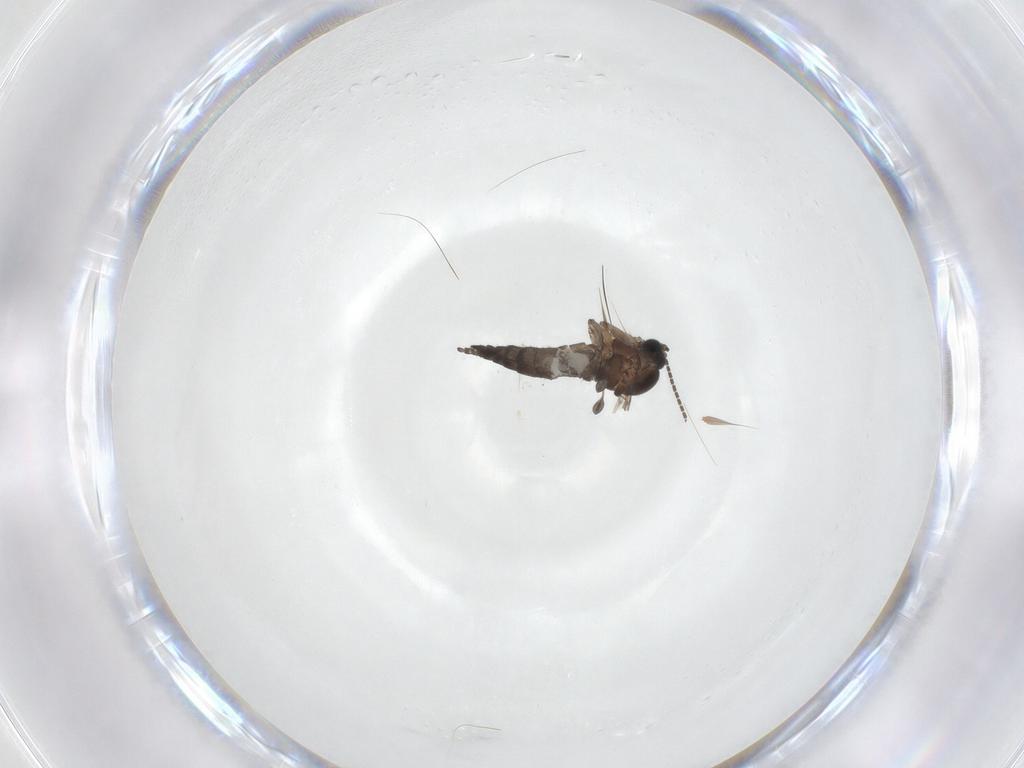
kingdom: Animalia
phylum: Arthropoda
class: Insecta
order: Diptera
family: Sciaridae
